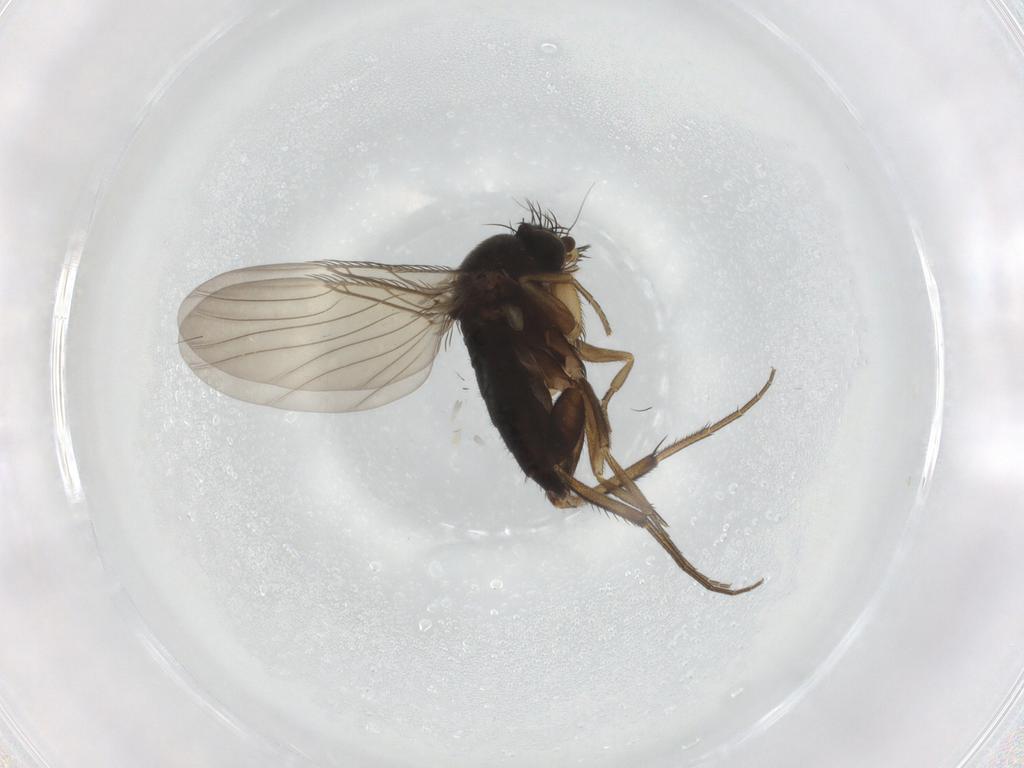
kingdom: Animalia
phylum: Arthropoda
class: Insecta
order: Diptera
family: Phoridae
